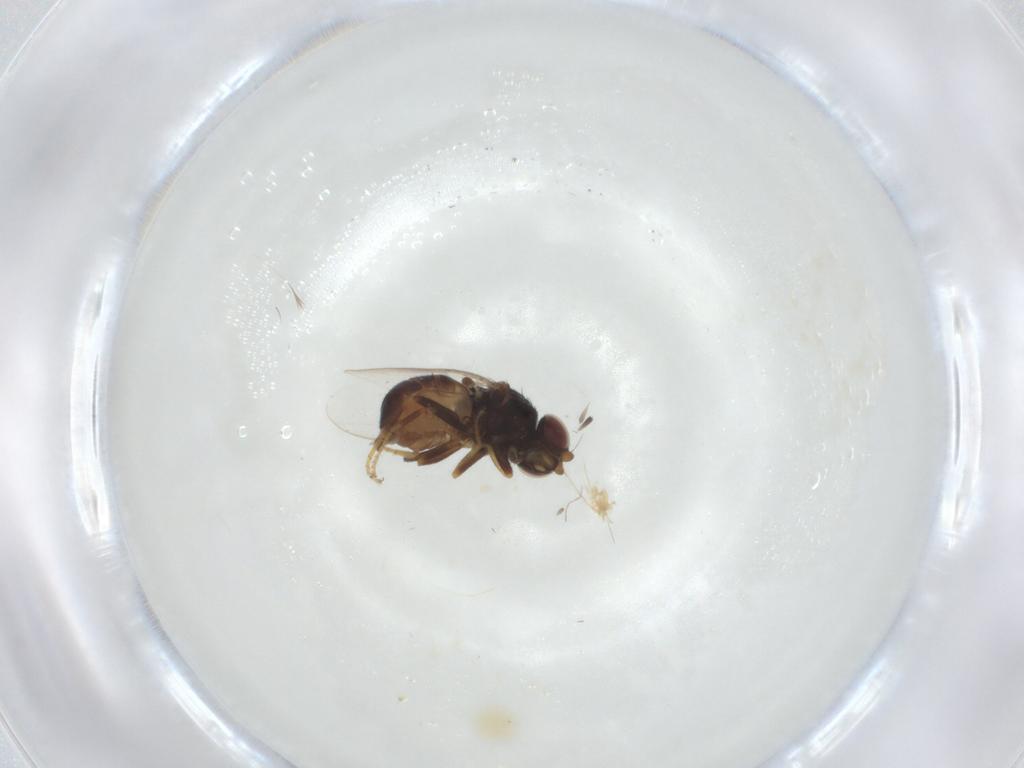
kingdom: Animalia
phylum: Arthropoda
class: Insecta
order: Diptera
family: Chloropidae
